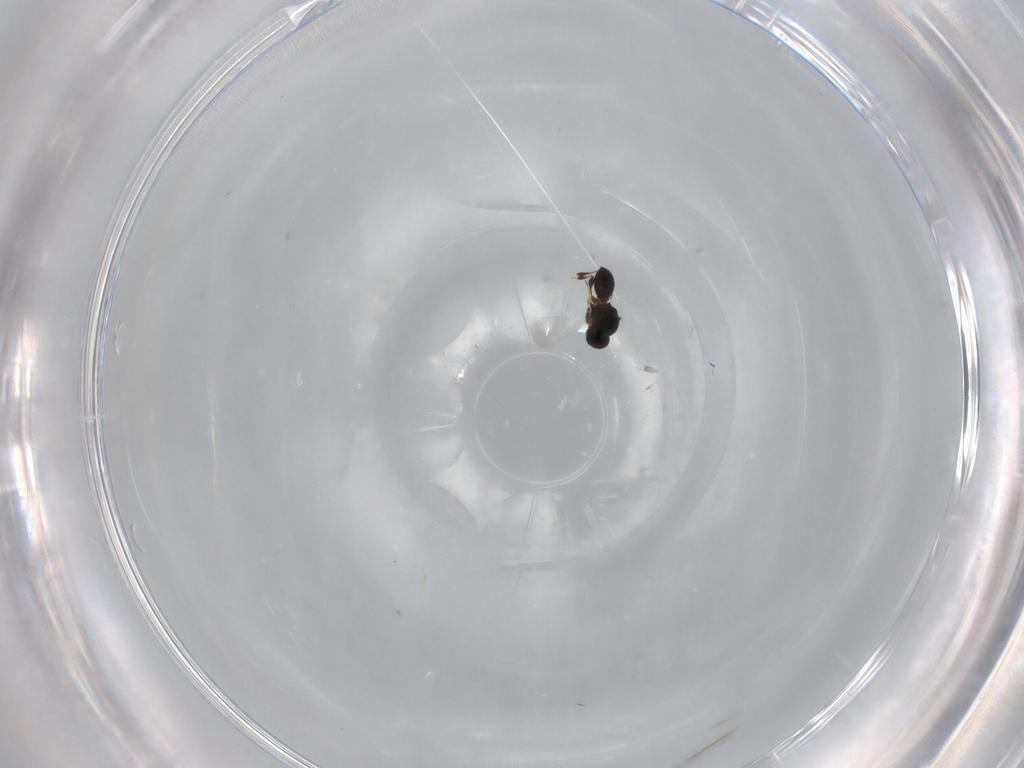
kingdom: Animalia
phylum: Arthropoda
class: Insecta
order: Hymenoptera
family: Platygastridae
